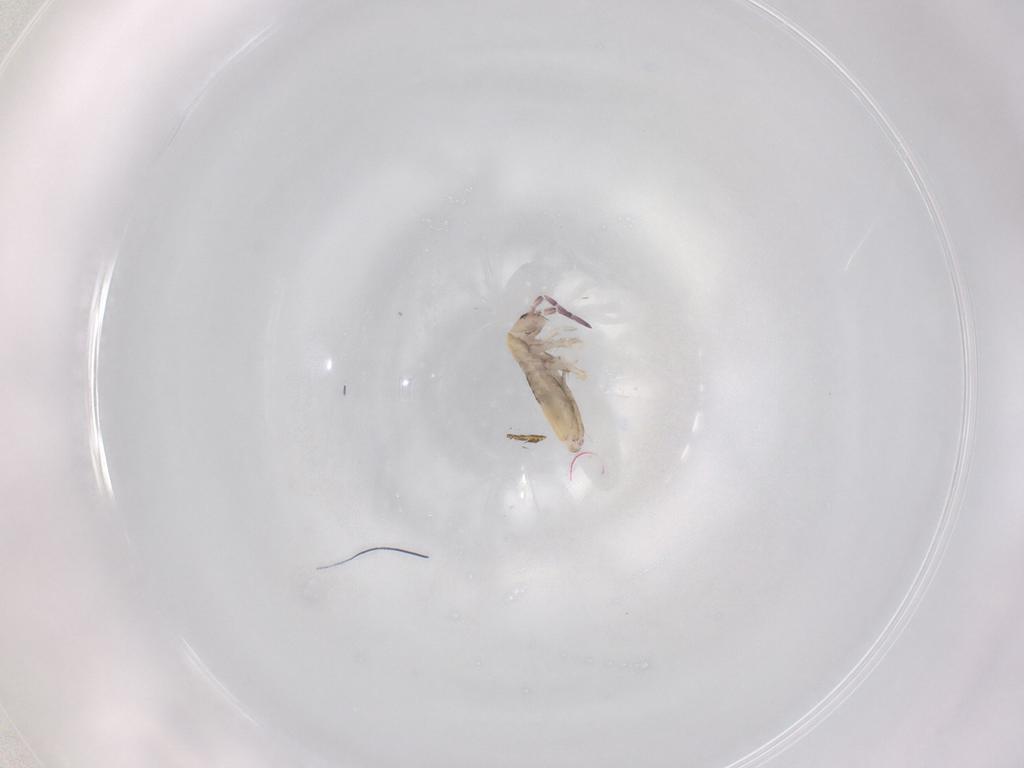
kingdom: Animalia
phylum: Arthropoda
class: Collembola
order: Entomobryomorpha
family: Entomobryidae
